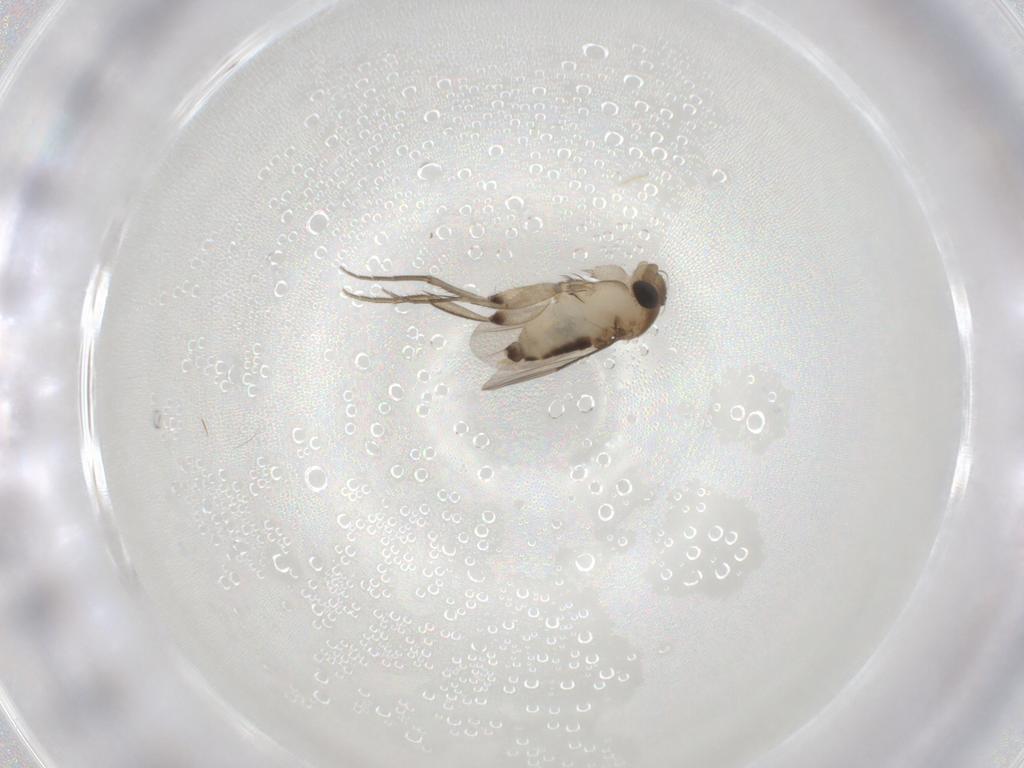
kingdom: Animalia
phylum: Arthropoda
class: Insecta
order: Diptera
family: Phoridae
